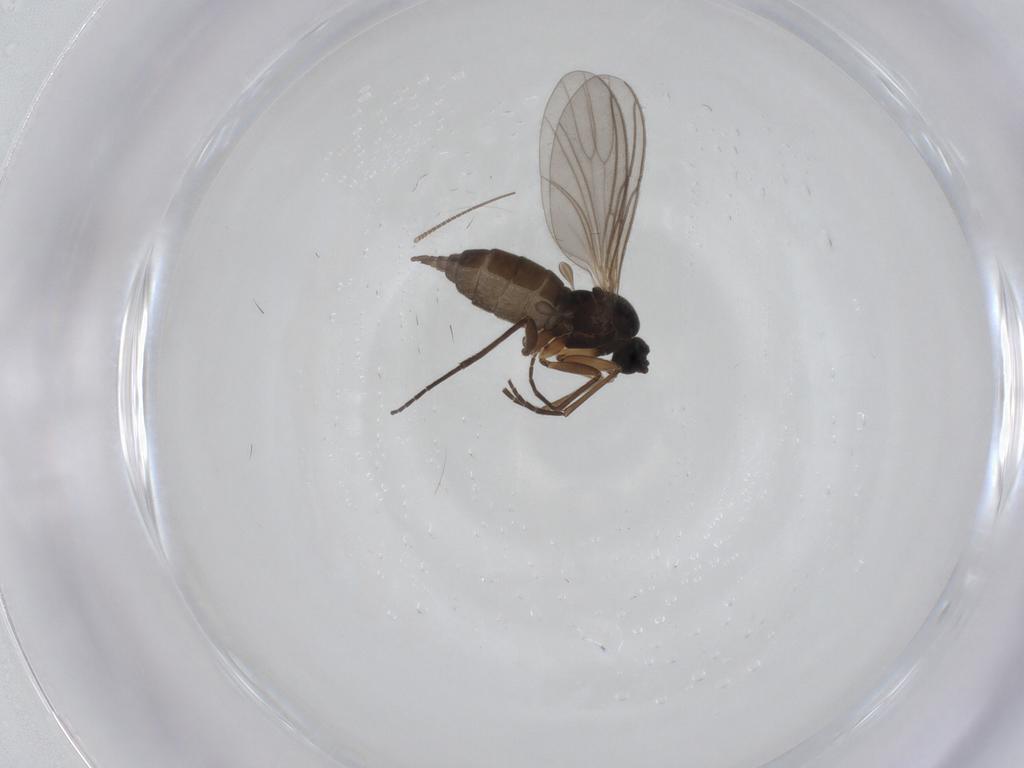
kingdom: Animalia
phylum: Arthropoda
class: Insecta
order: Diptera
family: Sciaridae
